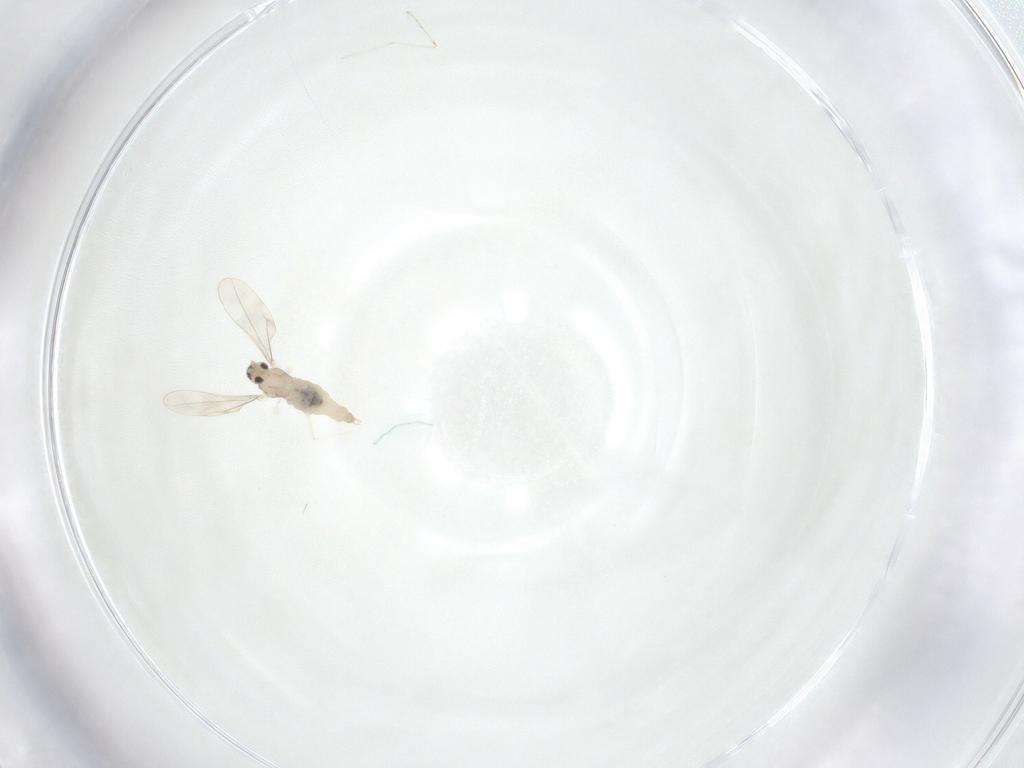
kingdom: Animalia
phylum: Arthropoda
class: Insecta
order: Diptera
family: Cecidomyiidae
